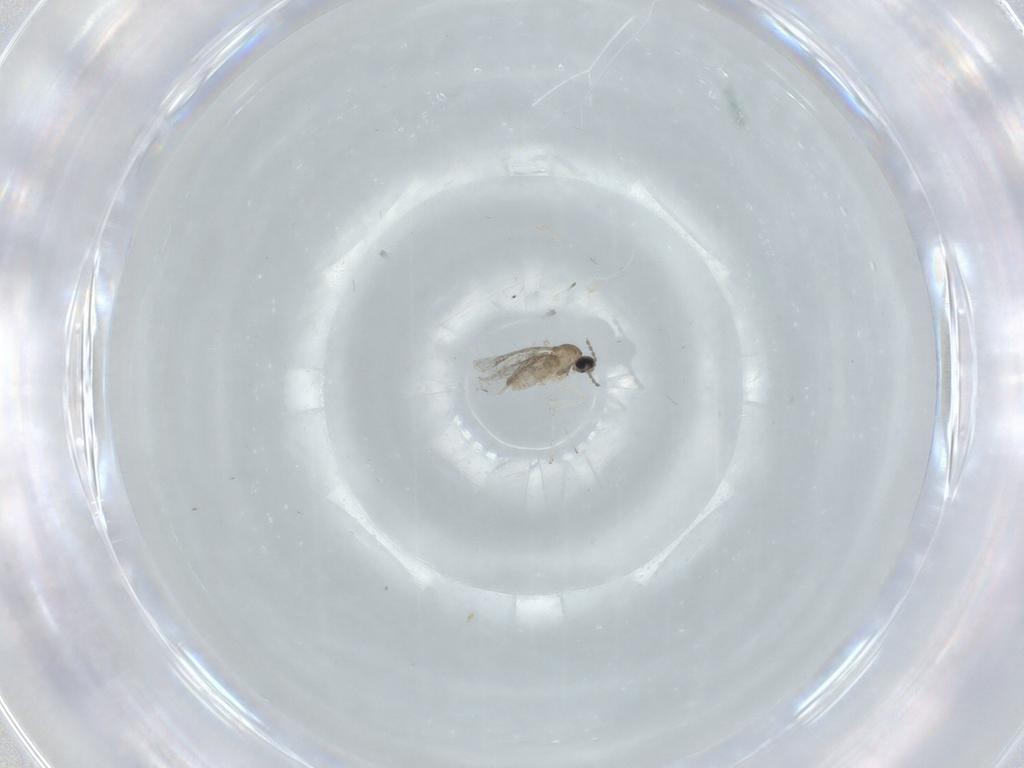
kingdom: Animalia
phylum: Arthropoda
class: Insecta
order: Diptera
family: Cecidomyiidae
